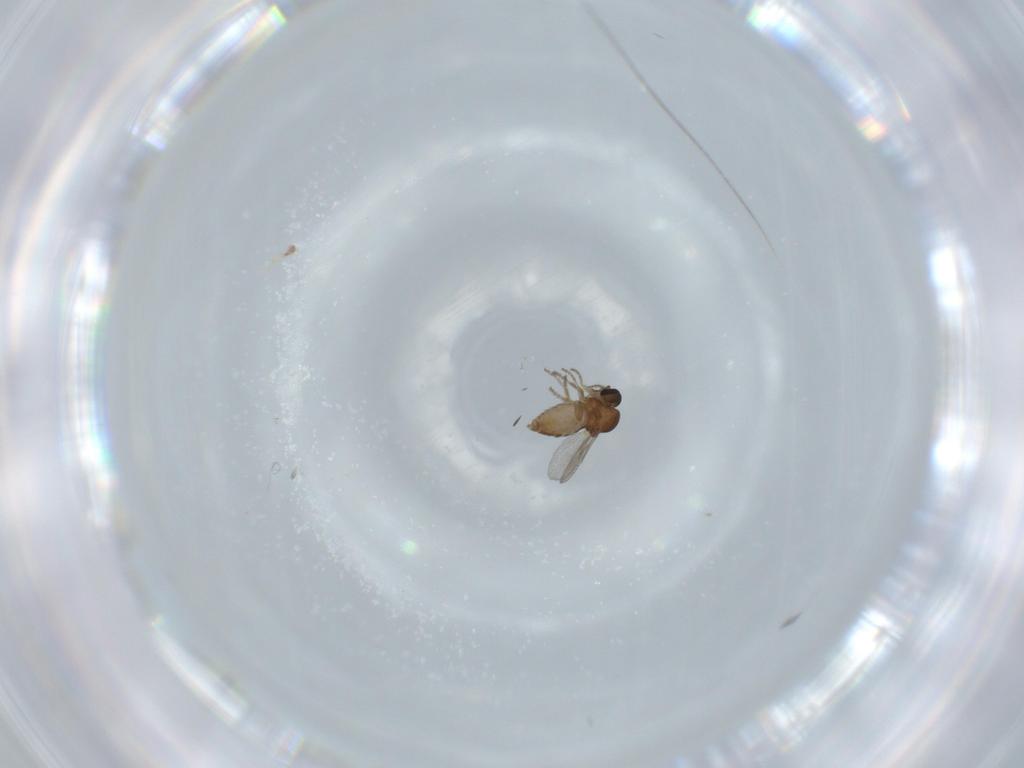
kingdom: Animalia
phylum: Arthropoda
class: Insecta
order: Diptera
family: Ceratopogonidae
